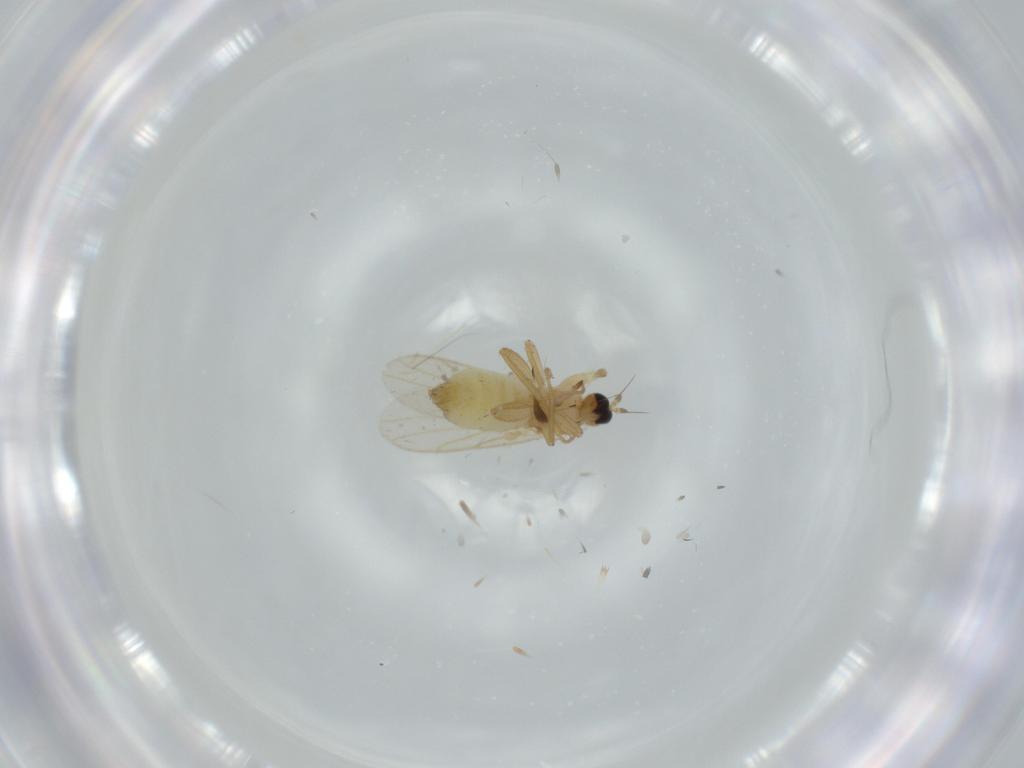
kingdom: Animalia
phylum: Arthropoda
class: Insecta
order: Diptera
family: Hybotidae
